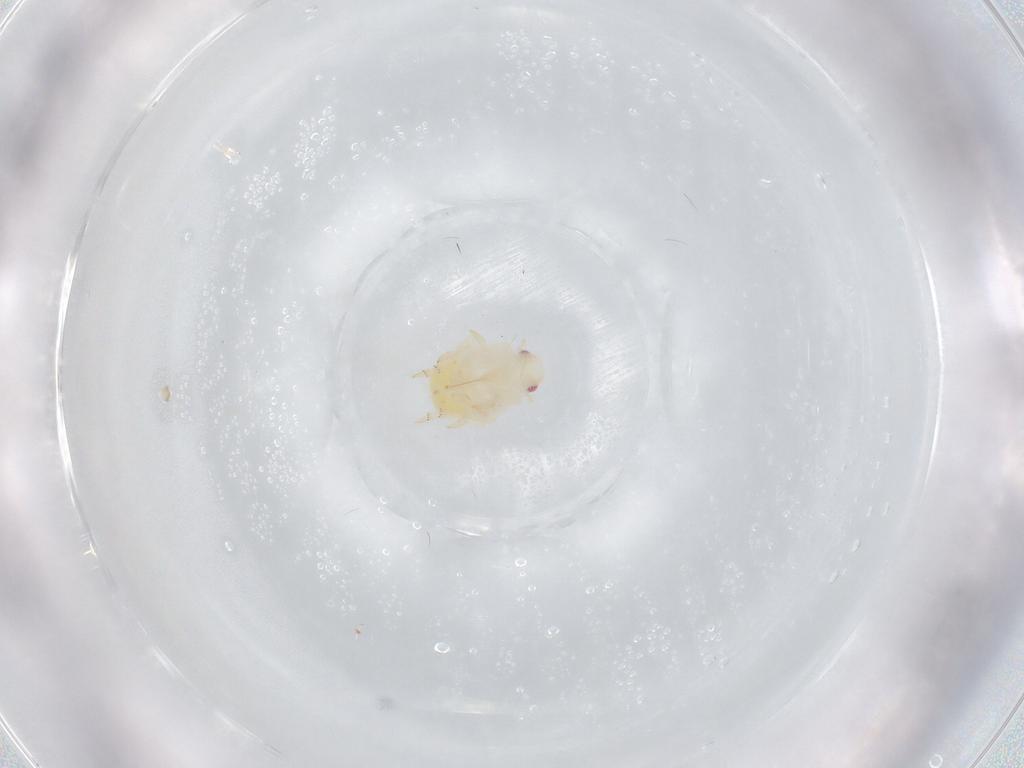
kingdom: Animalia
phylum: Arthropoda
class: Insecta
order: Hemiptera
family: Flatidae
